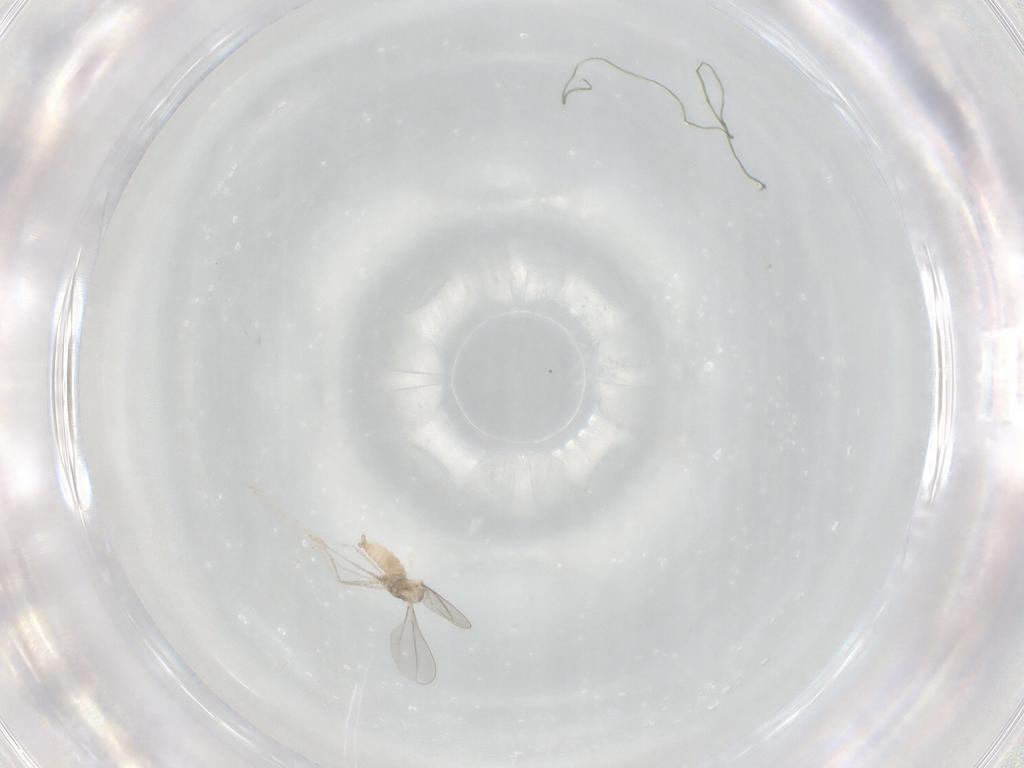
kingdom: Animalia
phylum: Arthropoda
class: Insecta
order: Diptera
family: Cecidomyiidae
